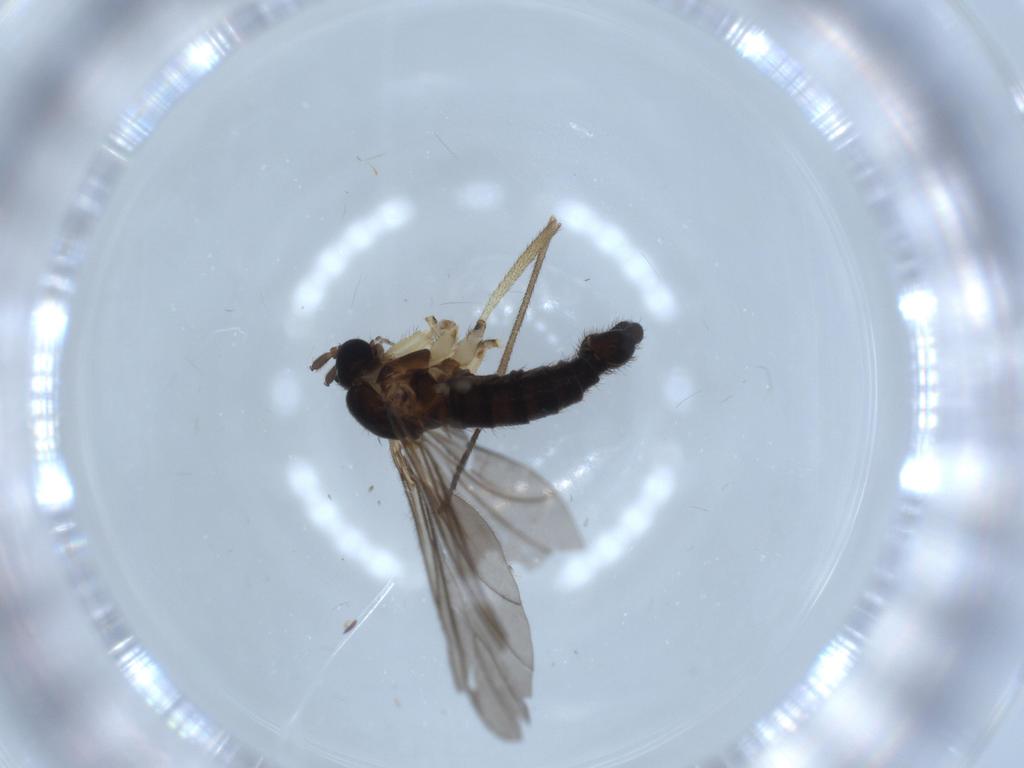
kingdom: Animalia
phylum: Arthropoda
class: Insecta
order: Diptera
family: Sciaridae
